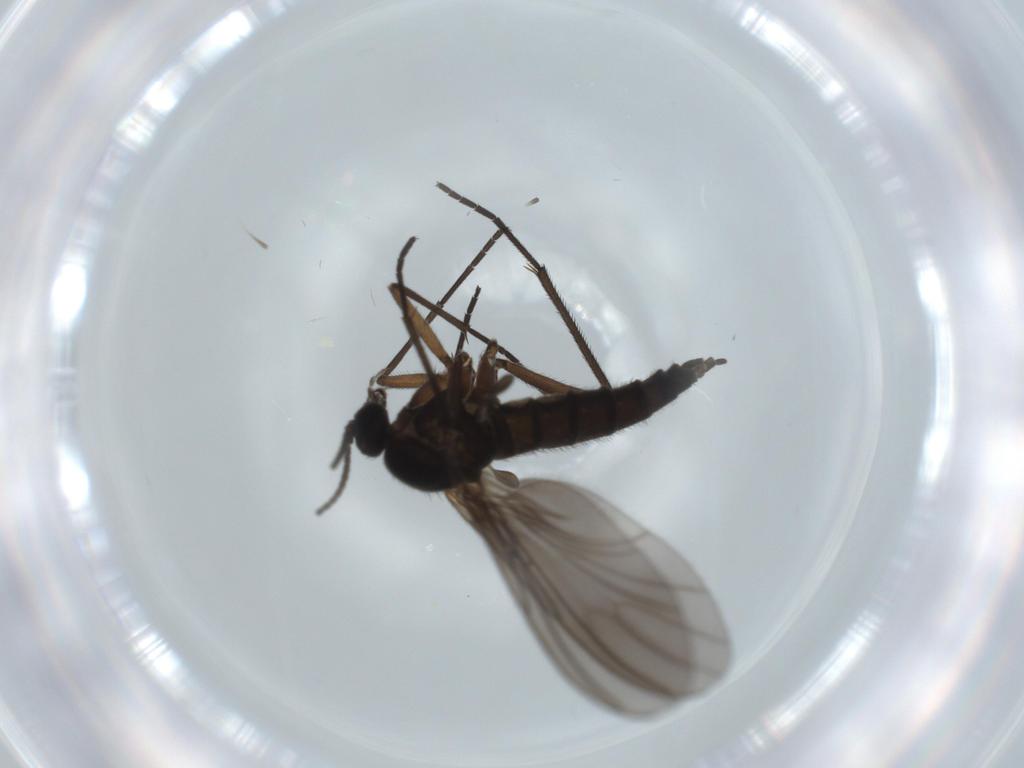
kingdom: Animalia
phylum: Arthropoda
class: Insecta
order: Diptera
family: Sciaridae
